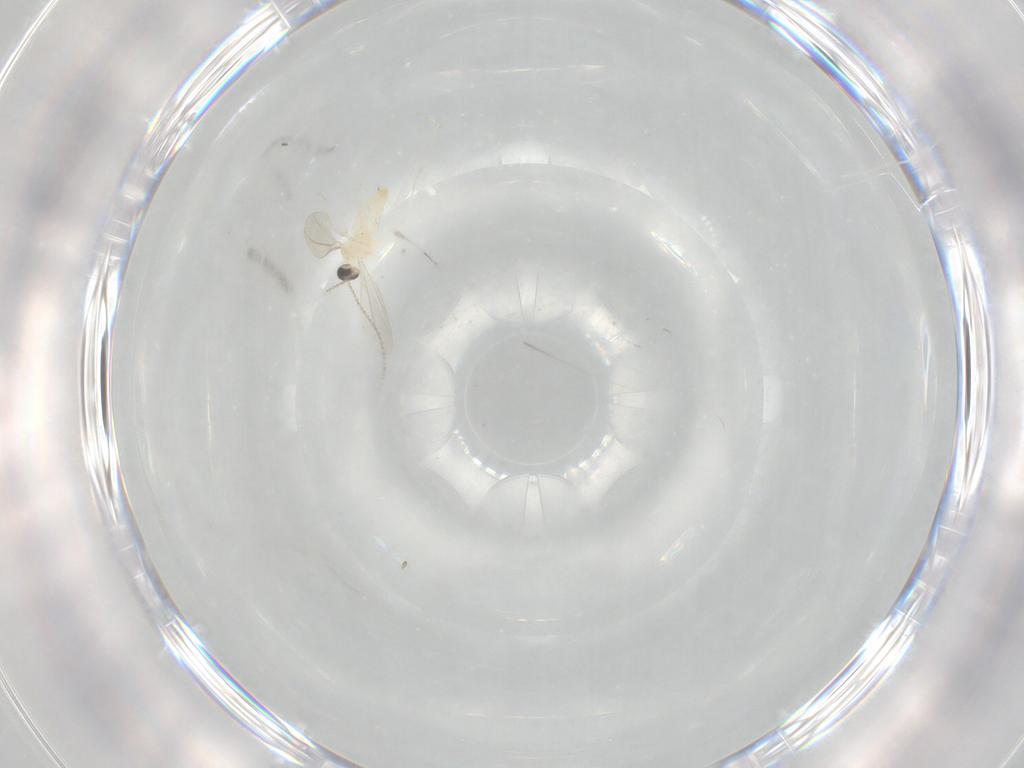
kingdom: Animalia
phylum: Arthropoda
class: Insecta
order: Diptera
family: Cecidomyiidae
